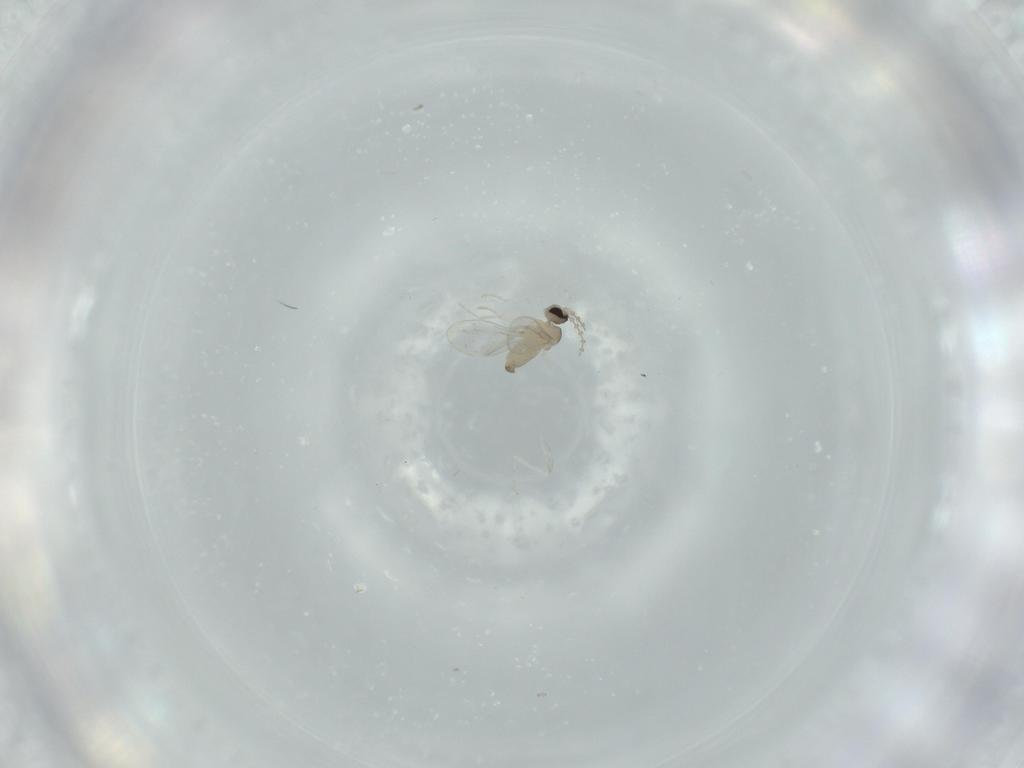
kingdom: Animalia
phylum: Arthropoda
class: Insecta
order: Diptera
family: Cecidomyiidae
